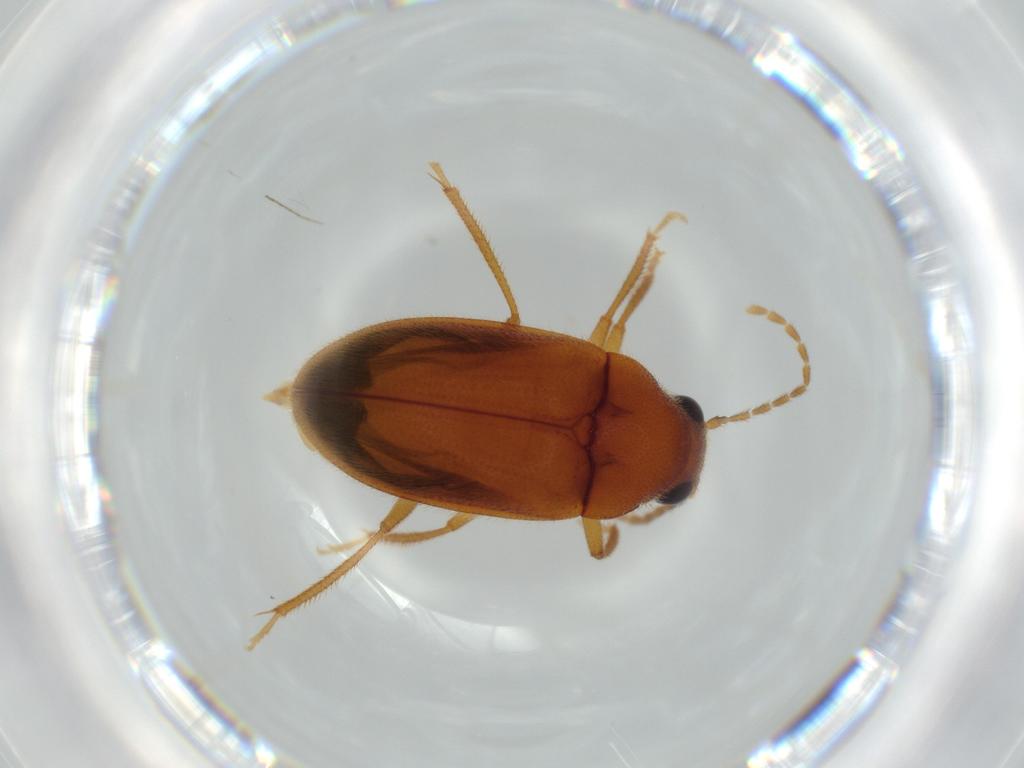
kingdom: Animalia
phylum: Arthropoda
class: Insecta
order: Coleoptera
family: Ptilodactylidae
